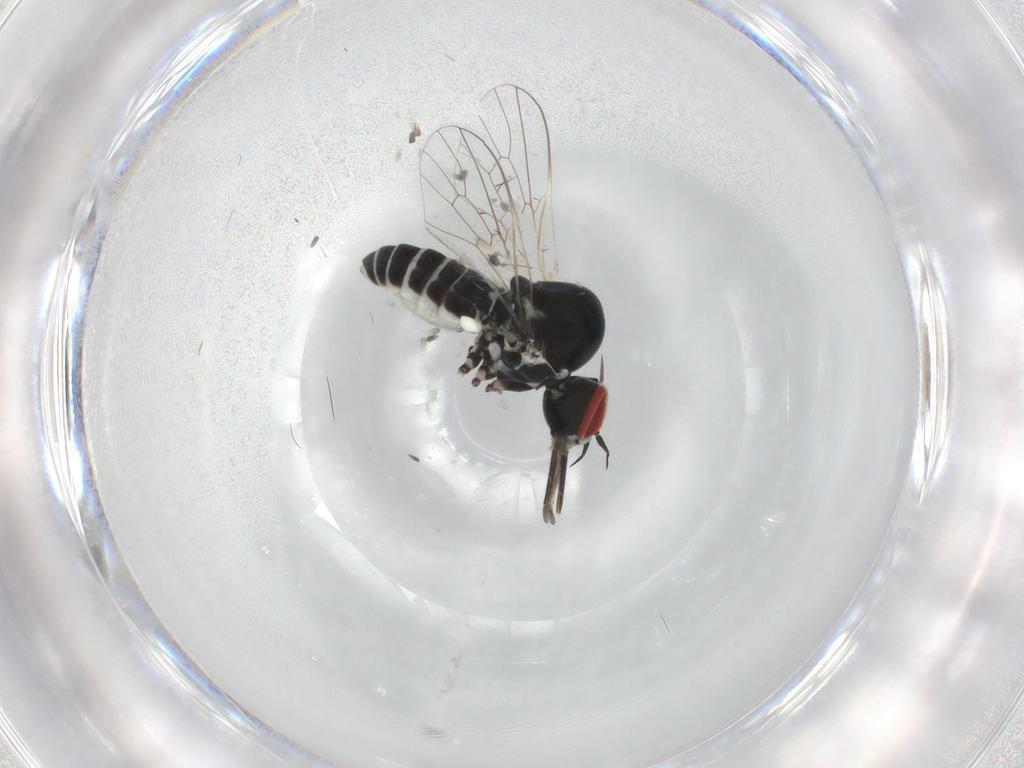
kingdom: Animalia
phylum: Arthropoda
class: Insecta
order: Diptera
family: Bombyliidae
